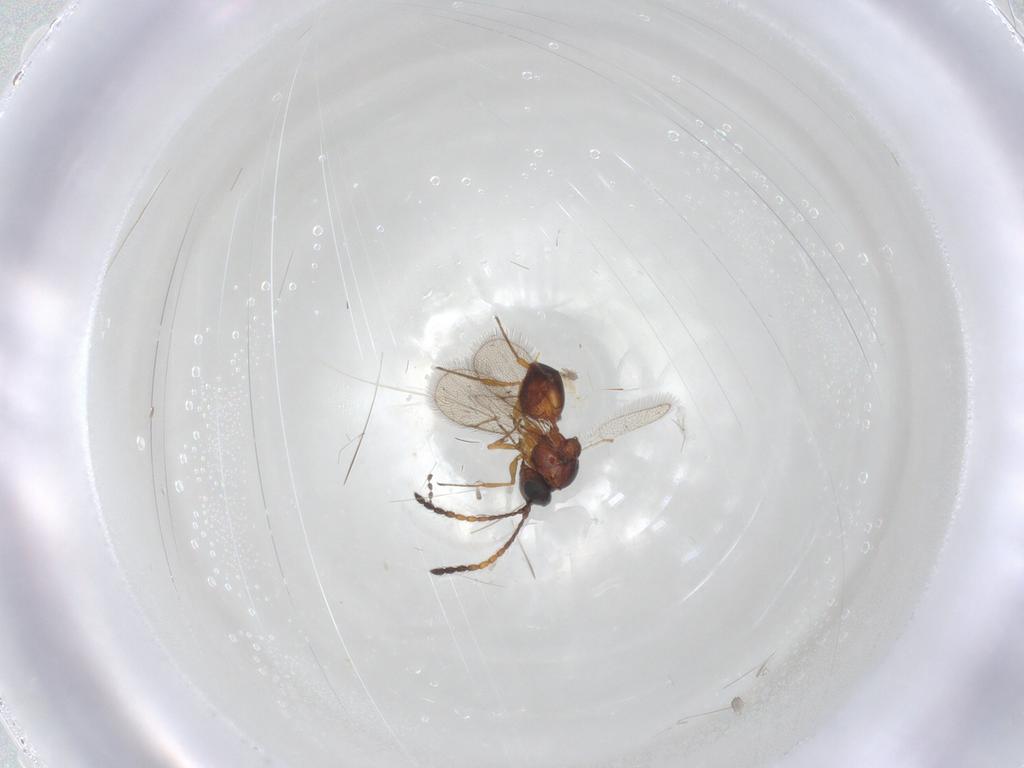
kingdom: Animalia
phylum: Arthropoda
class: Insecta
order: Hymenoptera
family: Figitidae
